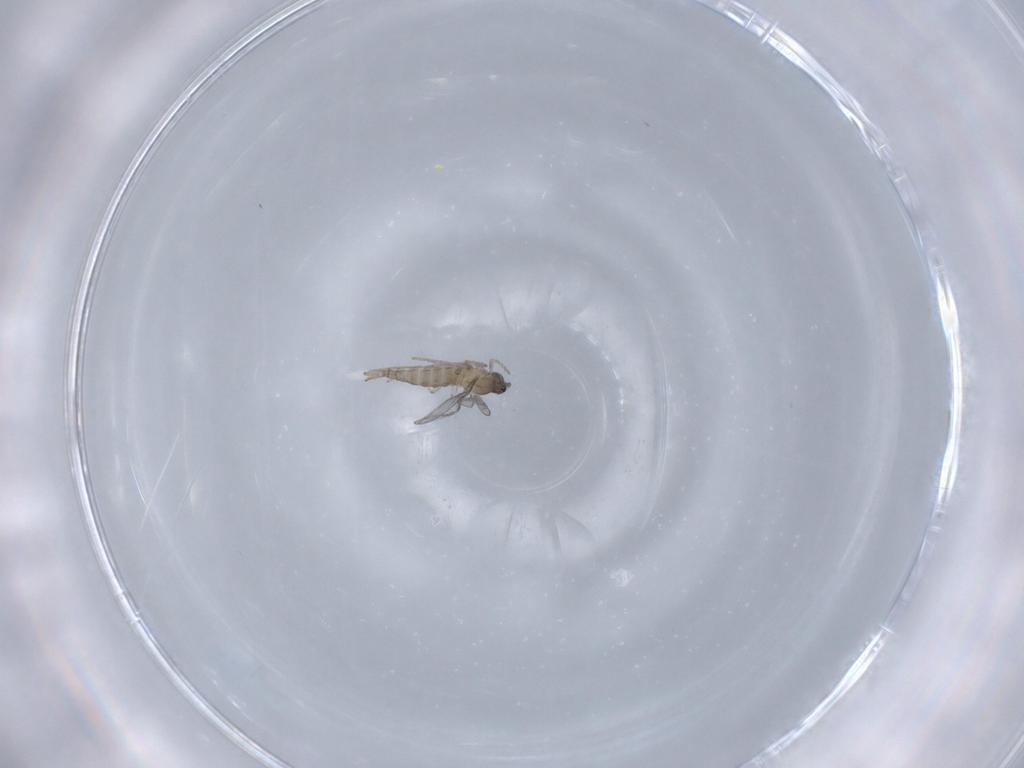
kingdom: Animalia
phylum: Arthropoda
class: Insecta
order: Diptera
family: Cecidomyiidae
